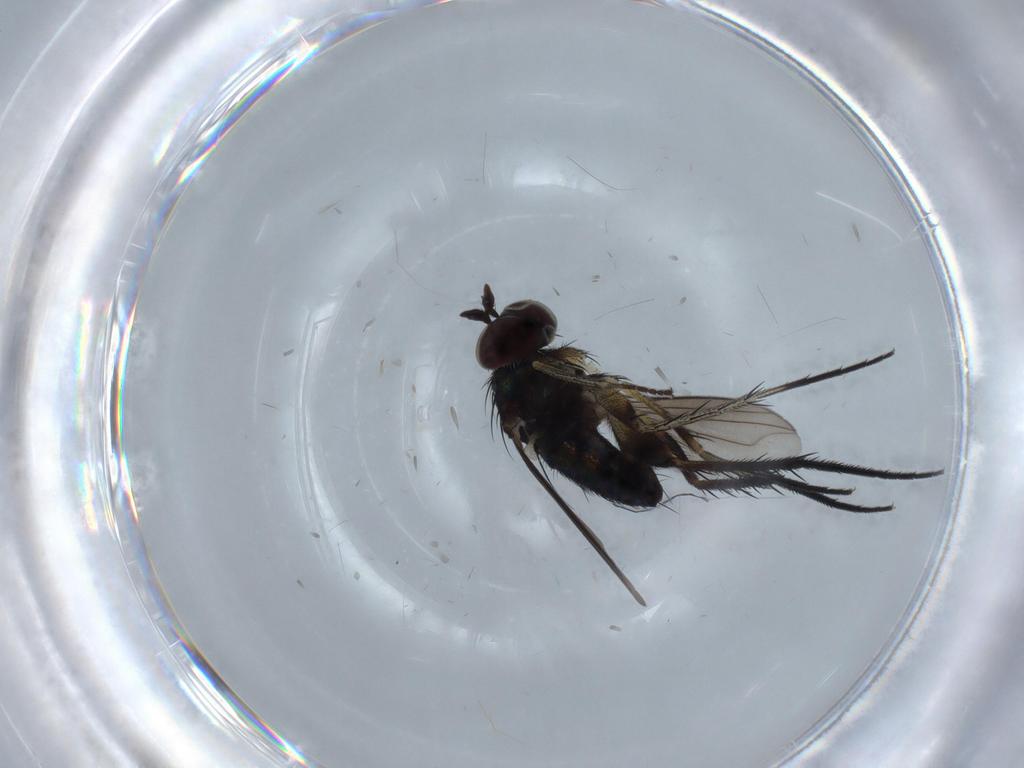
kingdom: Animalia
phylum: Arthropoda
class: Insecta
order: Diptera
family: Dolichopodidae
